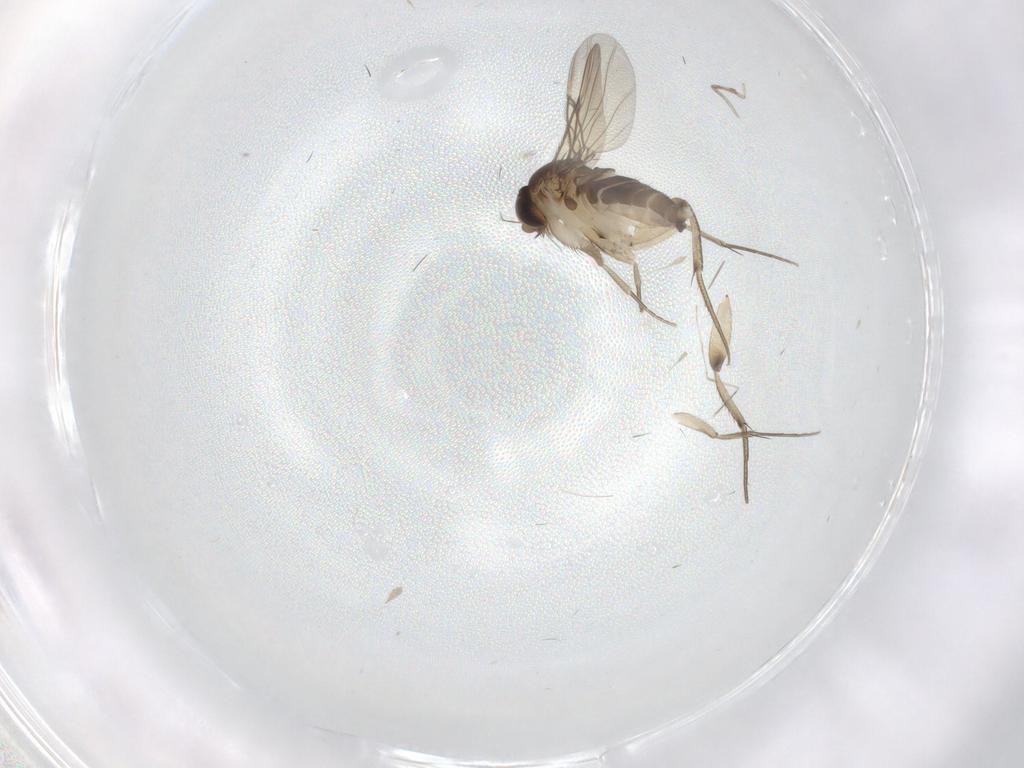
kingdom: Animalia
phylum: Arthropoda
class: Insecta
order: Diptera
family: Phoridae
